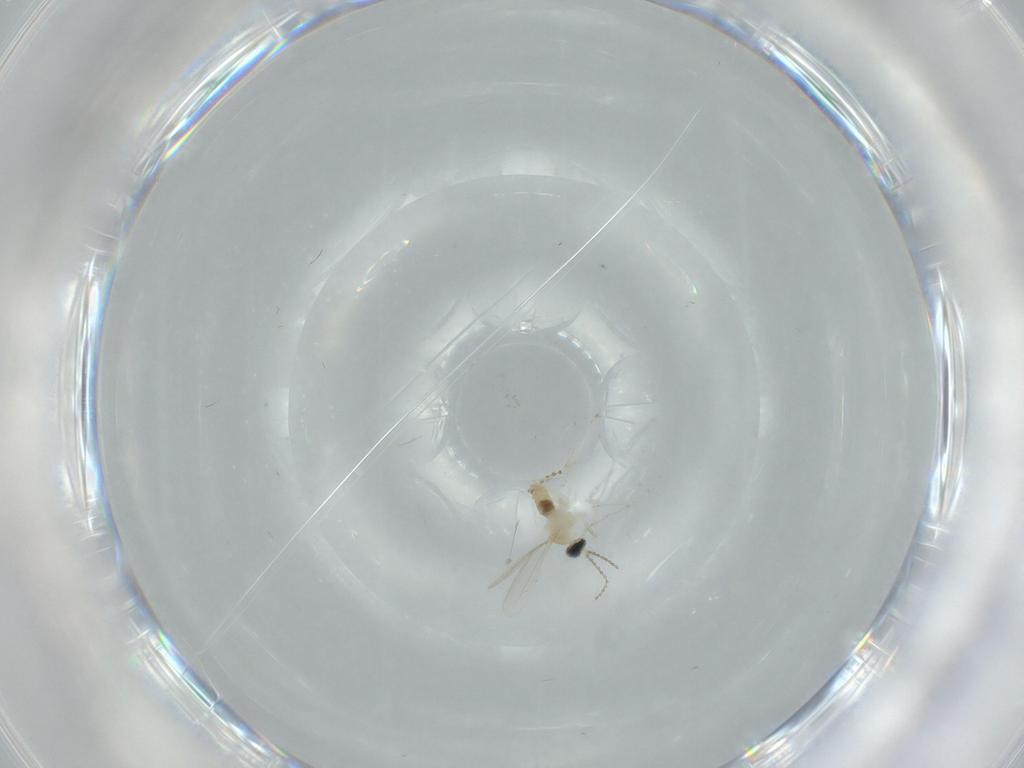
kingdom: Animalia
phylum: Arthropoda
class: Insecta
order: Diptera
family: Cecidomyiidae
